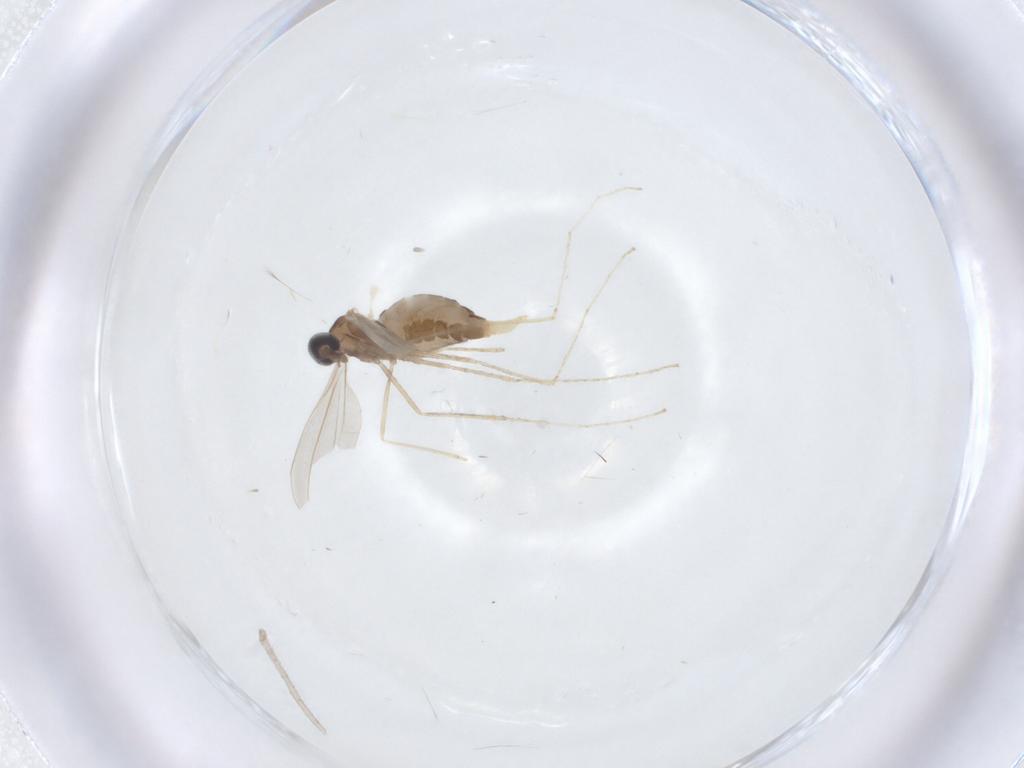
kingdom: Animalia
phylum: Arthropoda
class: Insecta
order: Diptera
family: Cecidomyiidae
